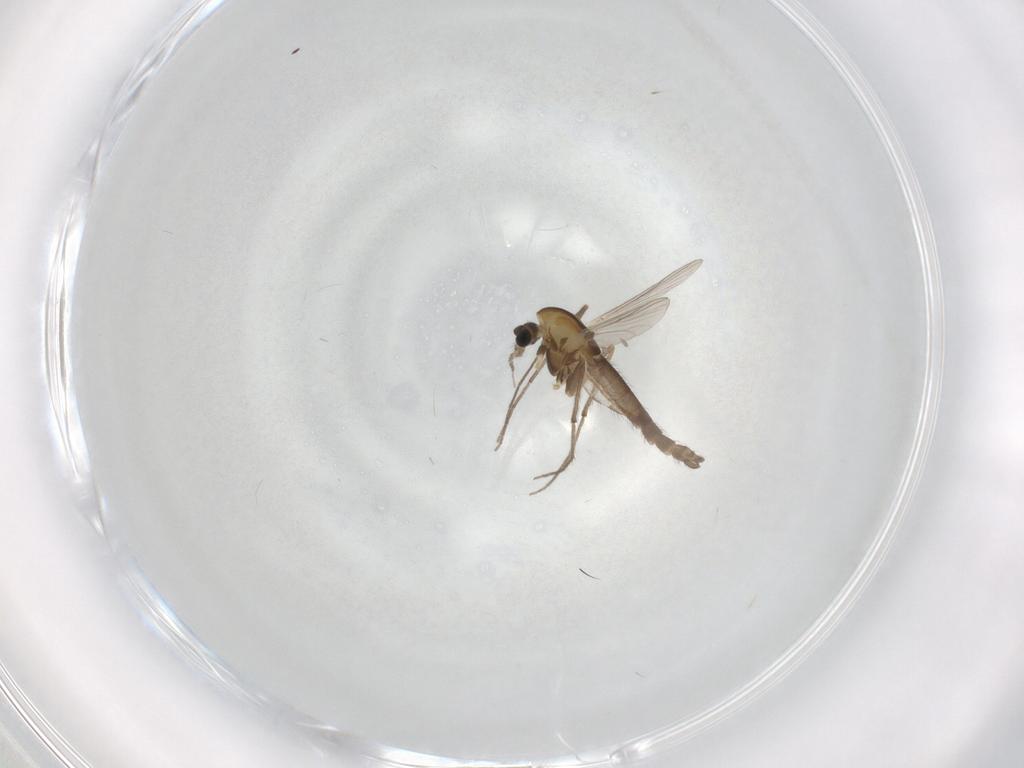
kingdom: Animalia
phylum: Arthropoda
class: Insecta
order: Diptera
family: Chironomidae
